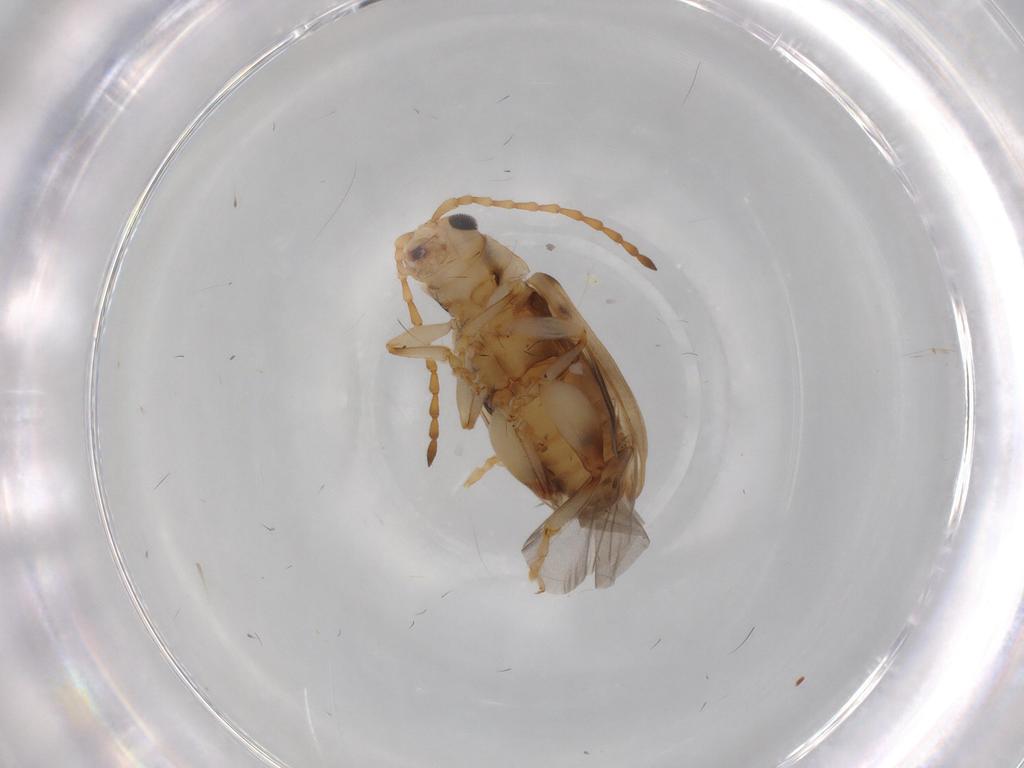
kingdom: Animalia
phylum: Arthropoda
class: Insecta
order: Coleoptera
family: Chrysomelidae
